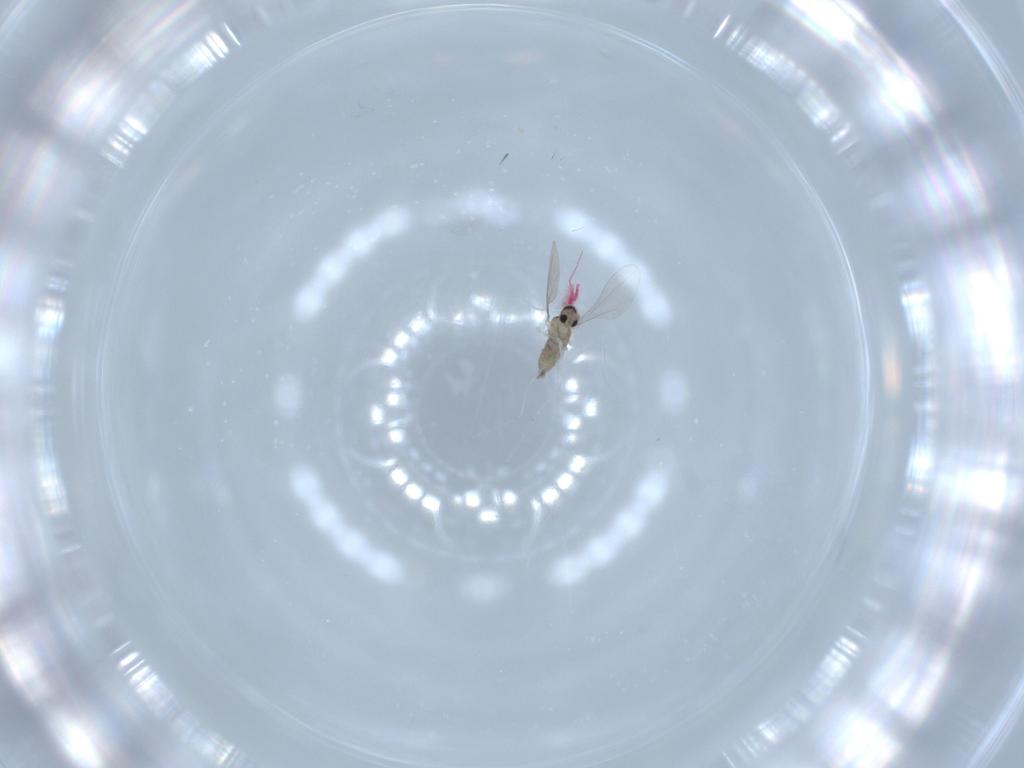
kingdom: Animalia
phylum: Arthropoda
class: Insecta
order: Diptera
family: Cecidomyiidae
